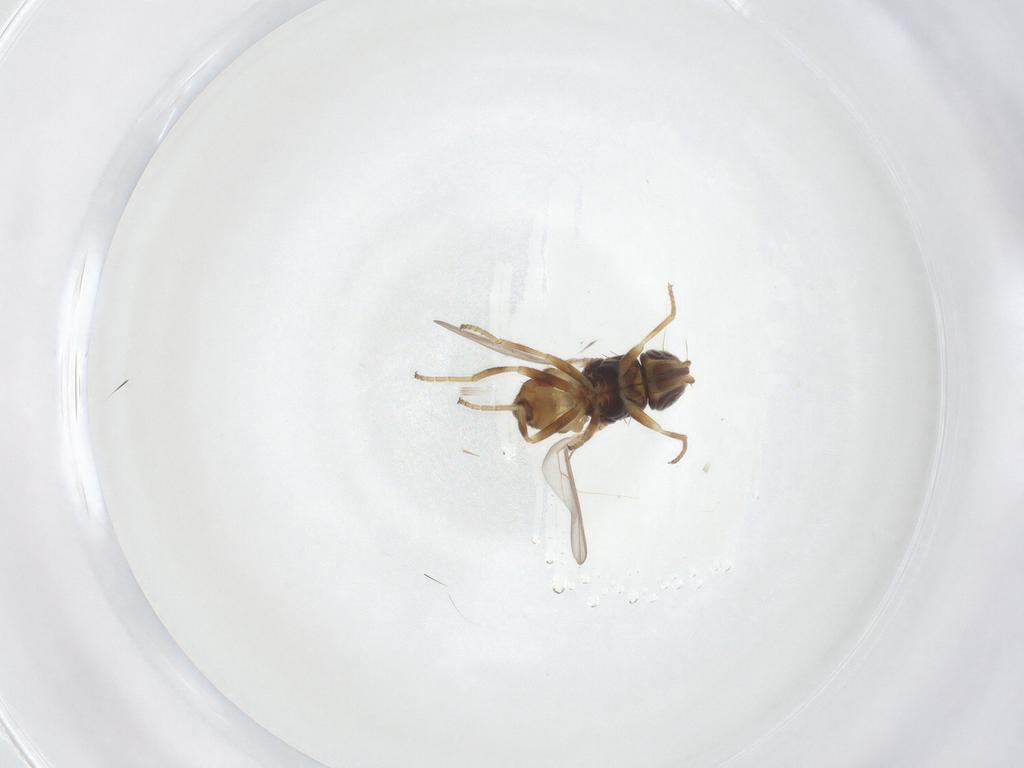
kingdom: Animalia
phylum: Arthropoda
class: Insecta
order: Diptera
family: Chloropidae
